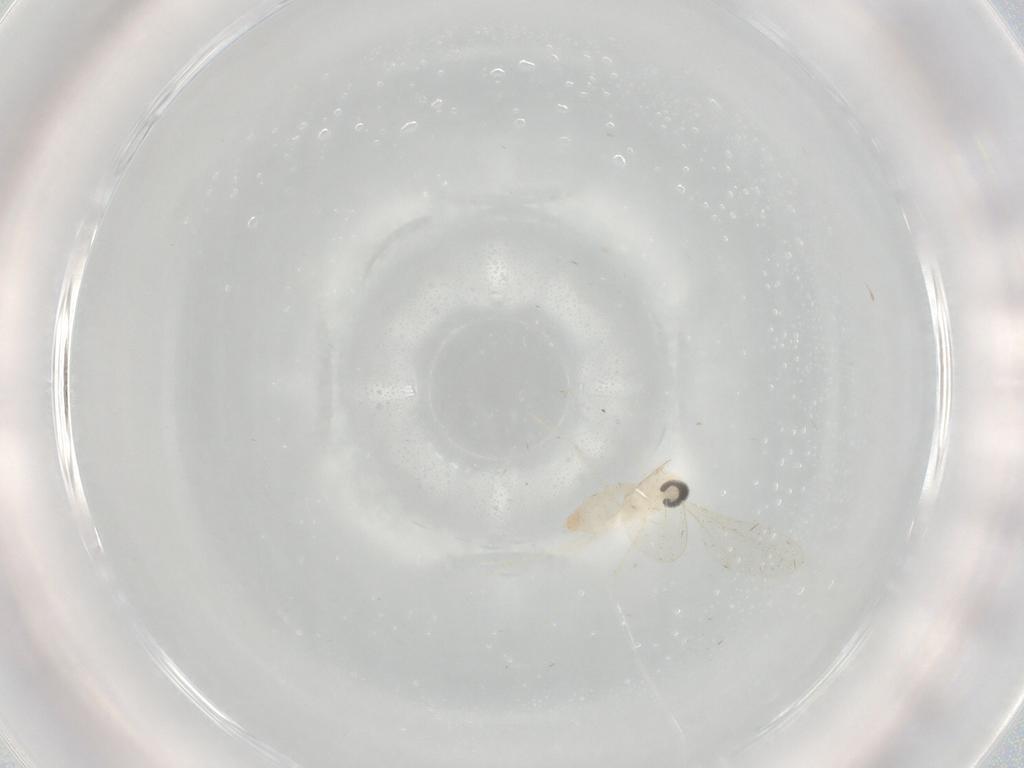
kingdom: Animalia
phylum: Arthropoda
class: Insecta
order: Diptera
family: Cecidomyiidae
